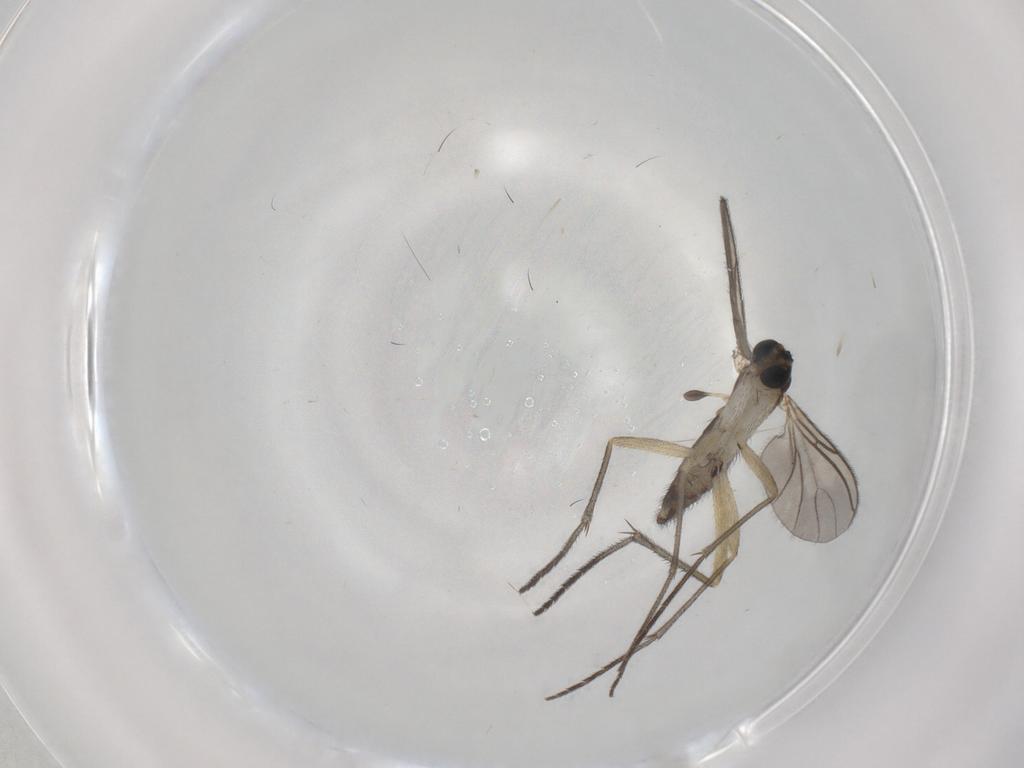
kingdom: Animalia
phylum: Arthropoda
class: Insecta
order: Diptera
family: Sciaridae
